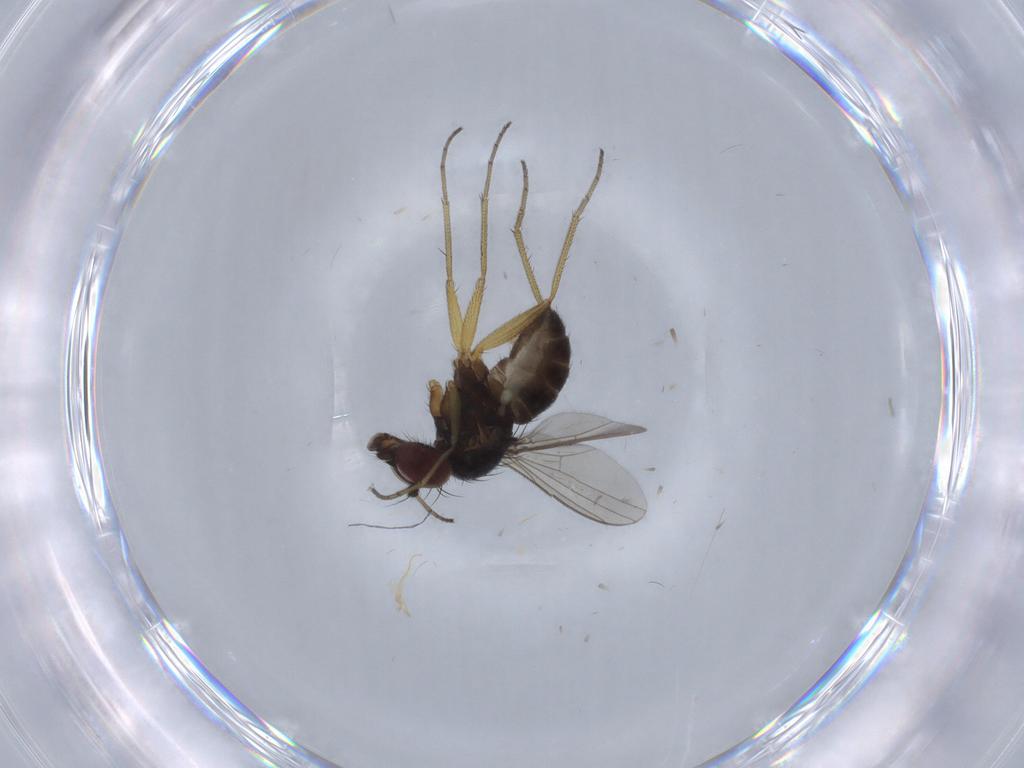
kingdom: Animalia
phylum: Arthropoda
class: Insecta
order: Diptera
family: Dolichopodidae
